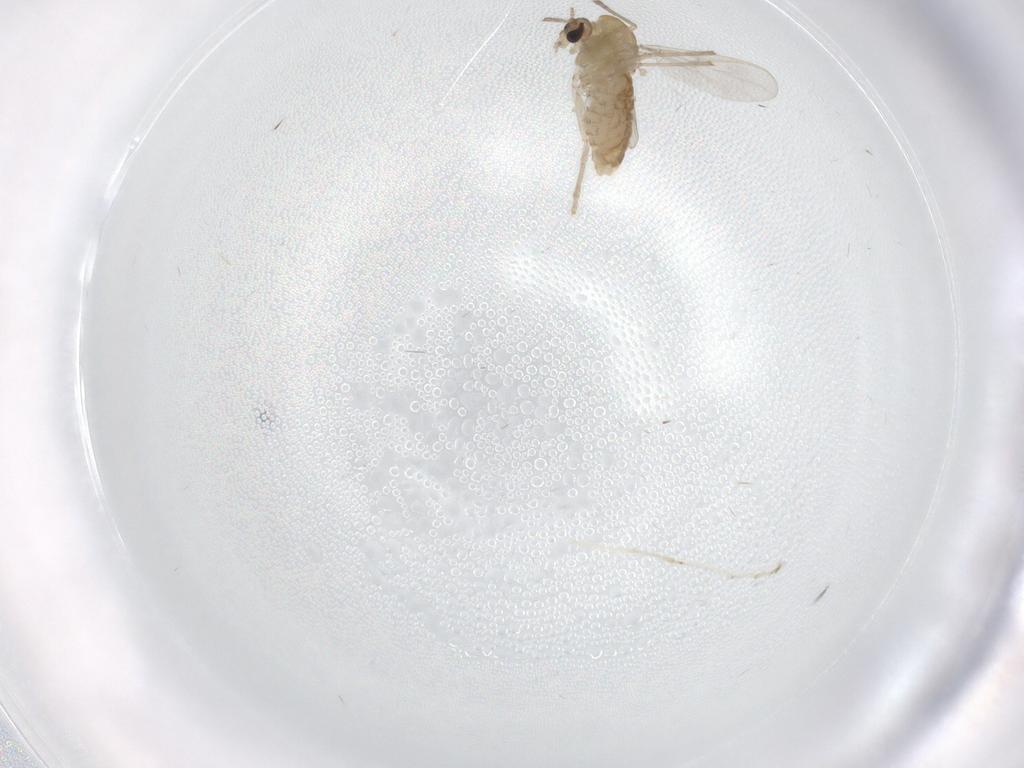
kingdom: Animalia
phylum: Arthropoda
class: Insecta
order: Diptera
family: Chironomidae
